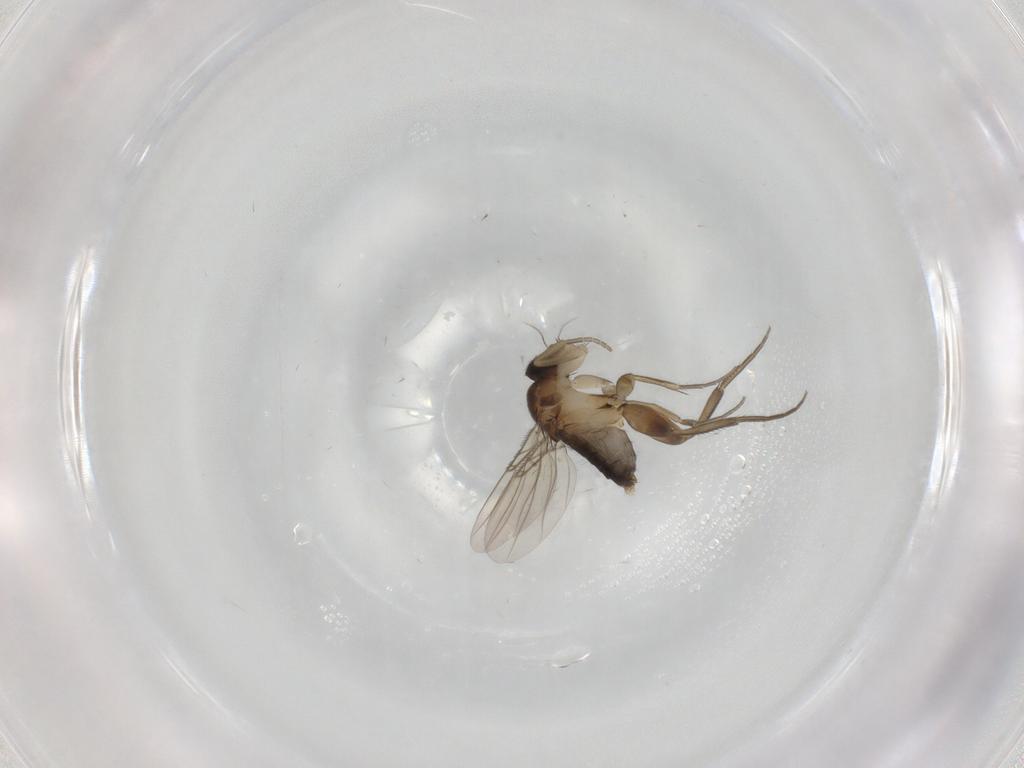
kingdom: Animalia
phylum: Arthropoda
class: Insecta
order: Diptera
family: Phoridae
